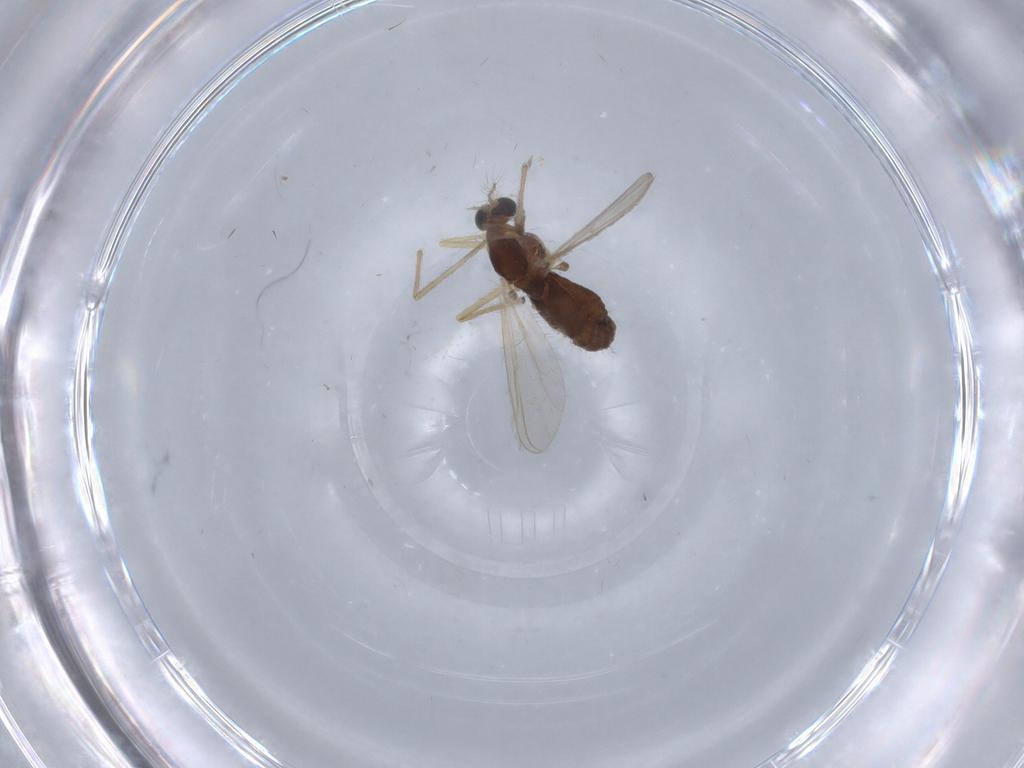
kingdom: Animalia
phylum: Arthropoda
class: Insecta
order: Diptera
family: Chironomidae
